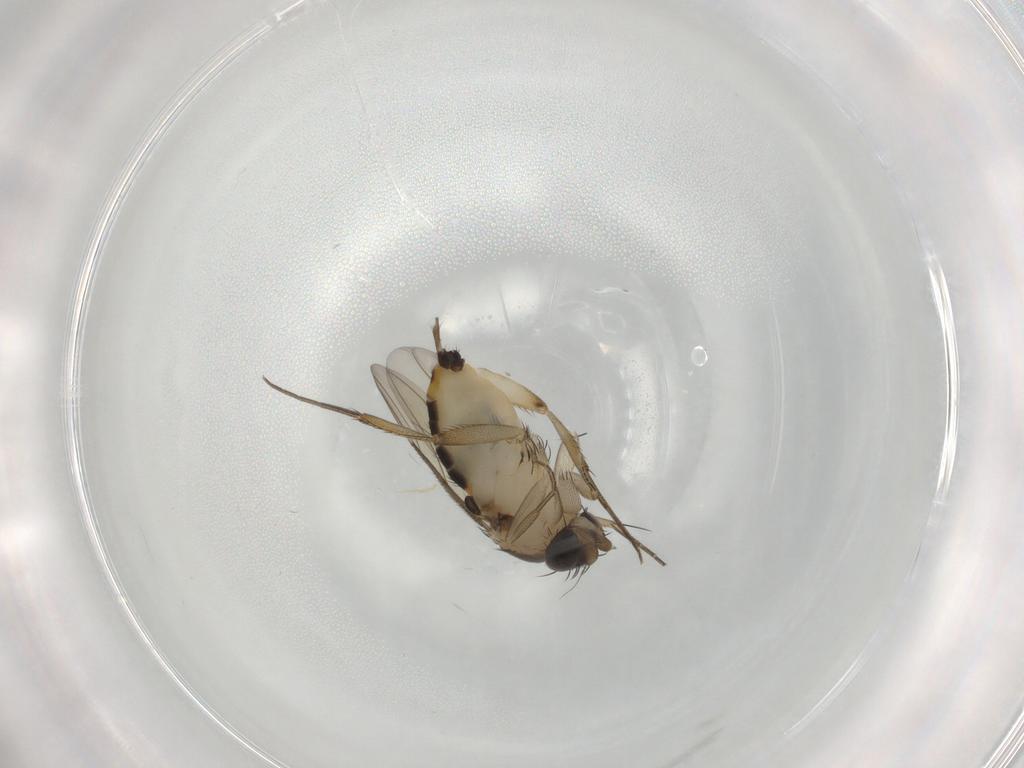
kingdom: Animalia
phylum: Arthropoda
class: Insecta
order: Diptera
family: Phoridae
